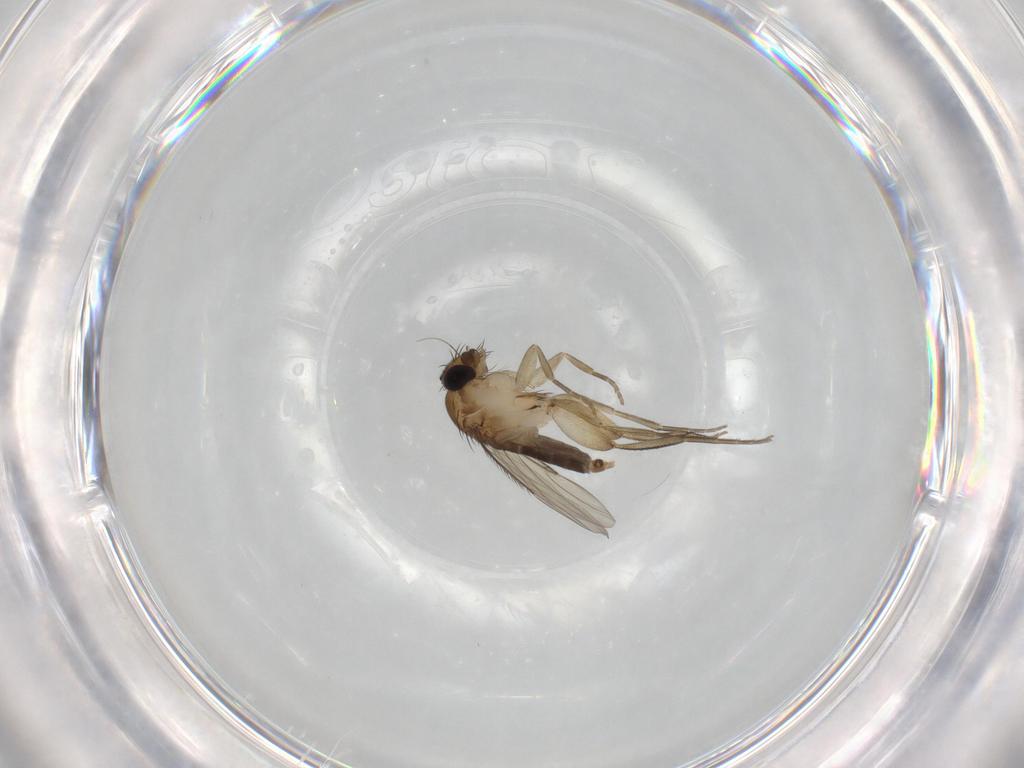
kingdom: Animalia
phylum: Arthropoda
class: Insecta
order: Diptera
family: Phoridae
